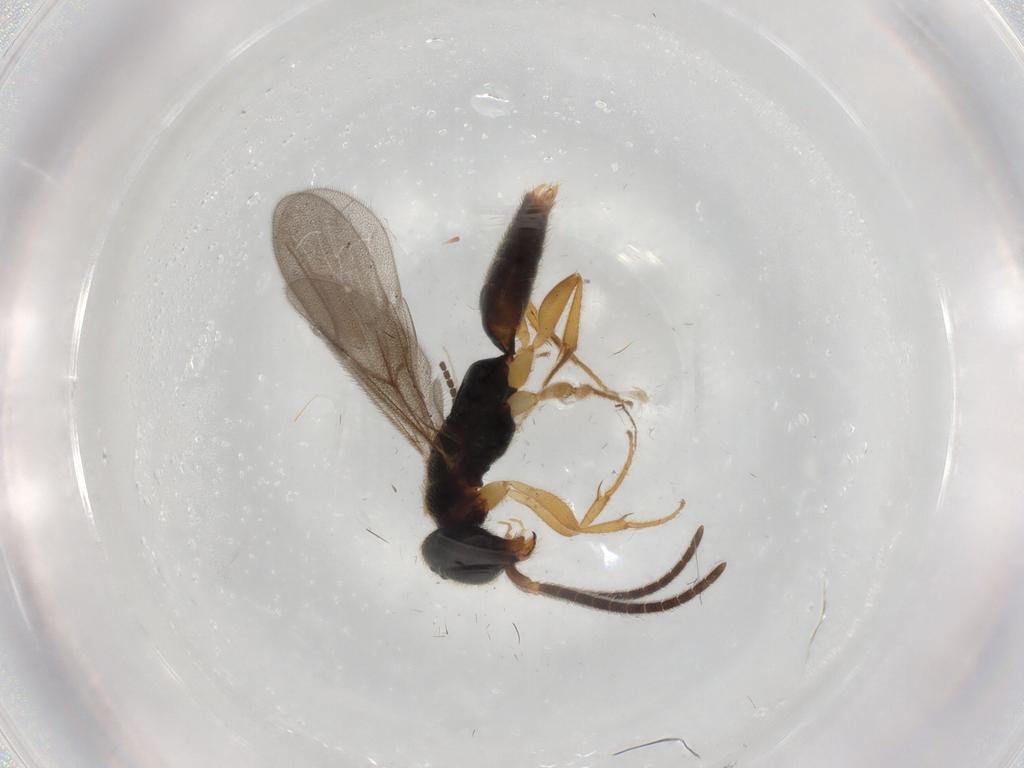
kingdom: Animalia
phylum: Arthropoda
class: Insecta
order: Hymenoptera
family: Bethylidae
